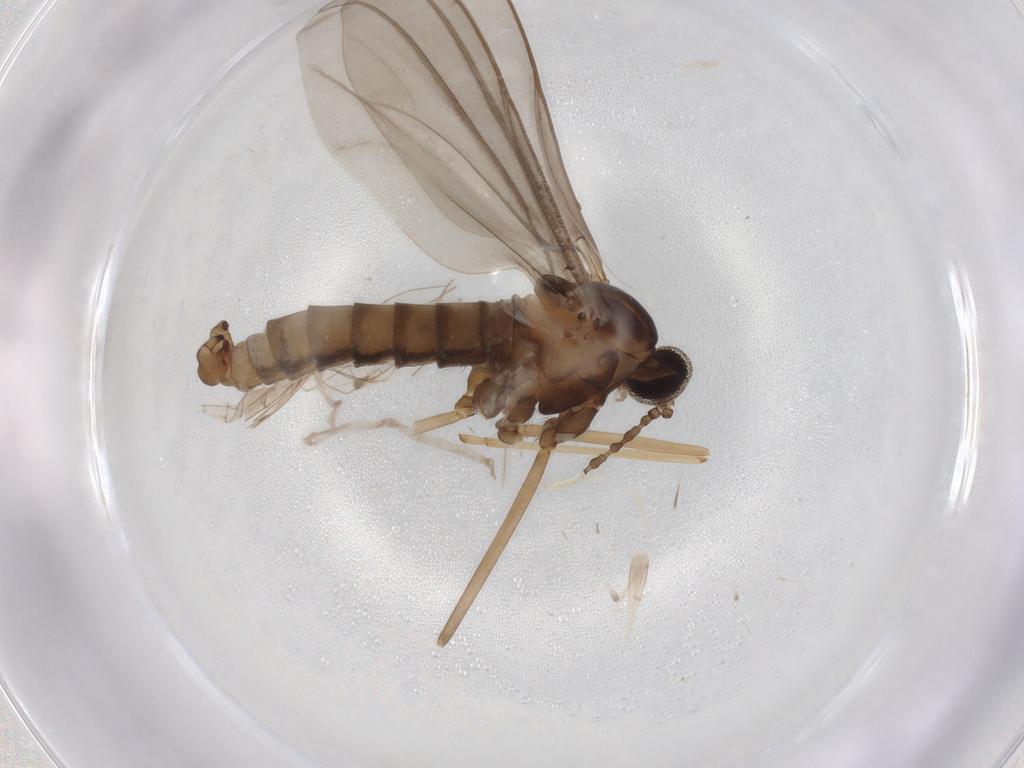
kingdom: Animalia
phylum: Arthropoda
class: Insecta
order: Diptera
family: Cecidomyiidae
